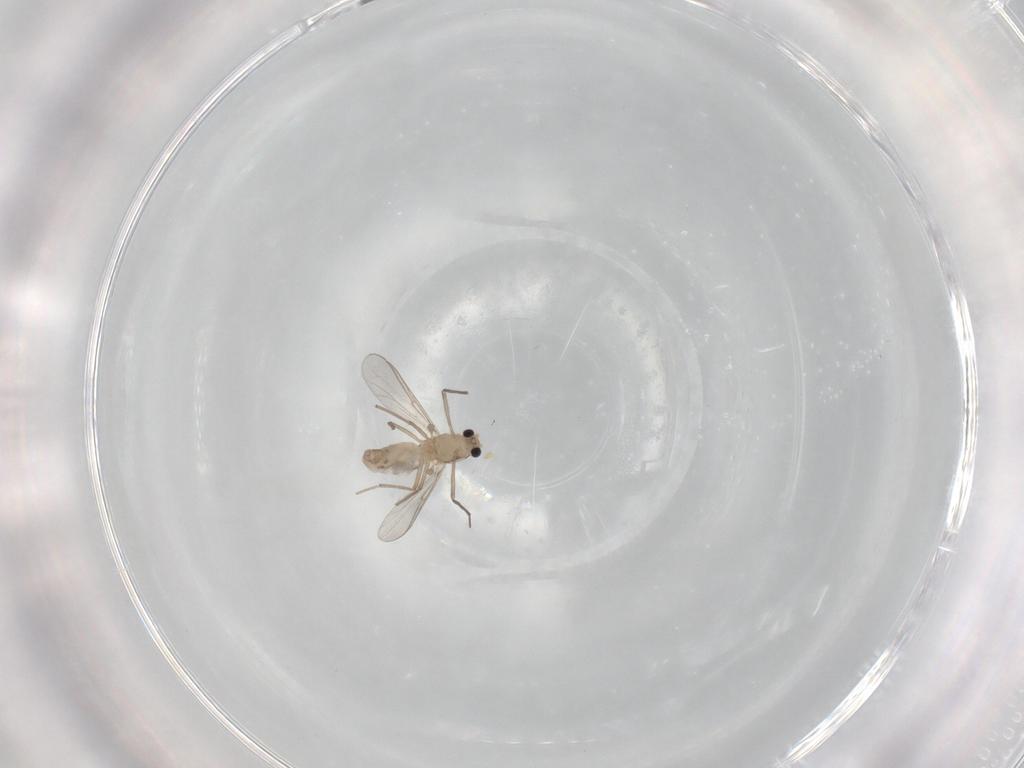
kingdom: Animalia
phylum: Arthropoda
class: Insecta
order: Diptera
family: Chironomidae
